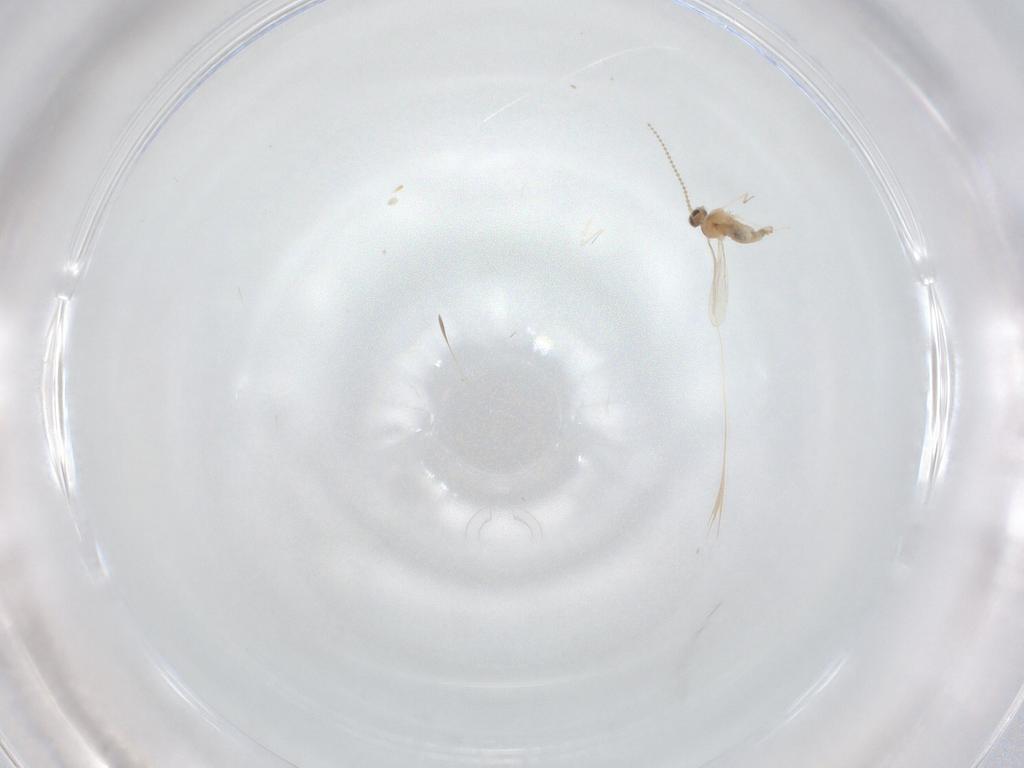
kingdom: Animalia
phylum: Arthropoda
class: Insecta
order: Diptera
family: Cecidomyiidae
